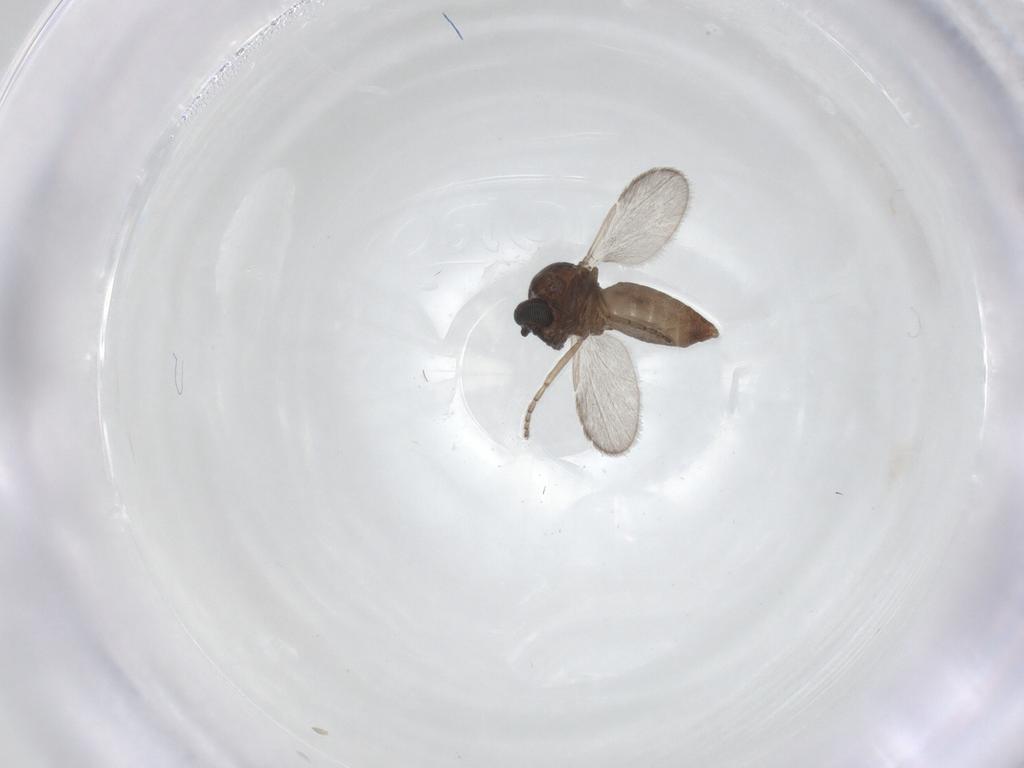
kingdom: Animalia
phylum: Arthropoda
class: Insecta
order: Diptera
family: Ceratopogonidae
